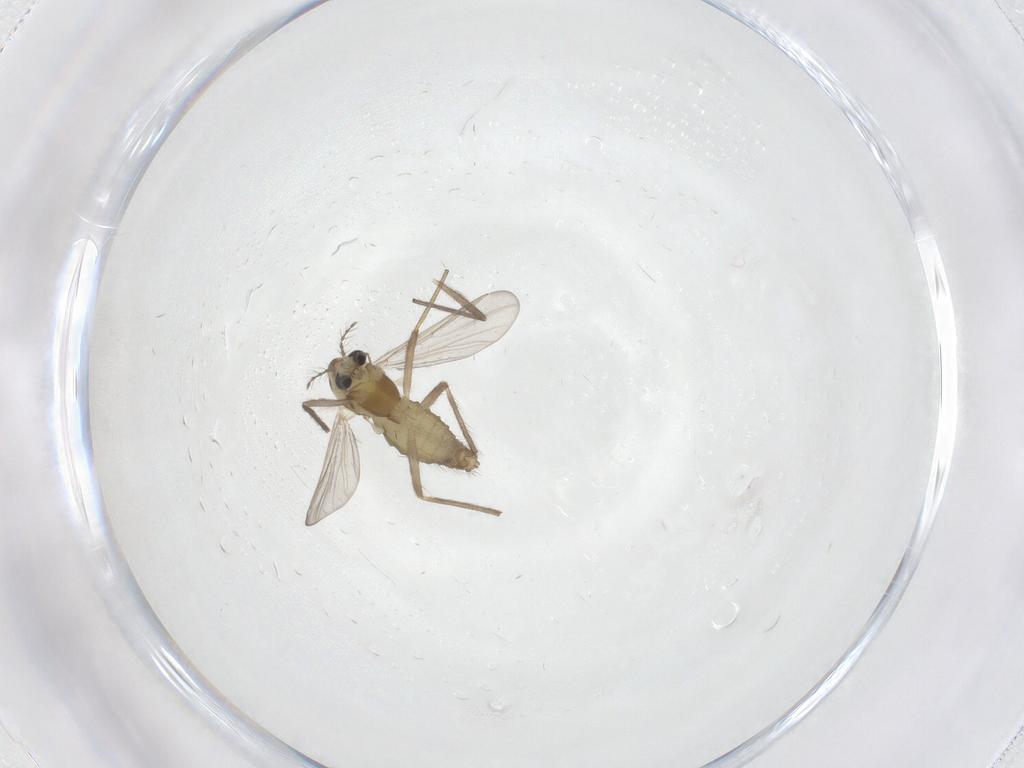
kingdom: Animalia
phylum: Arthropoda
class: Insecta
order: Diptera
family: Chironomidae
